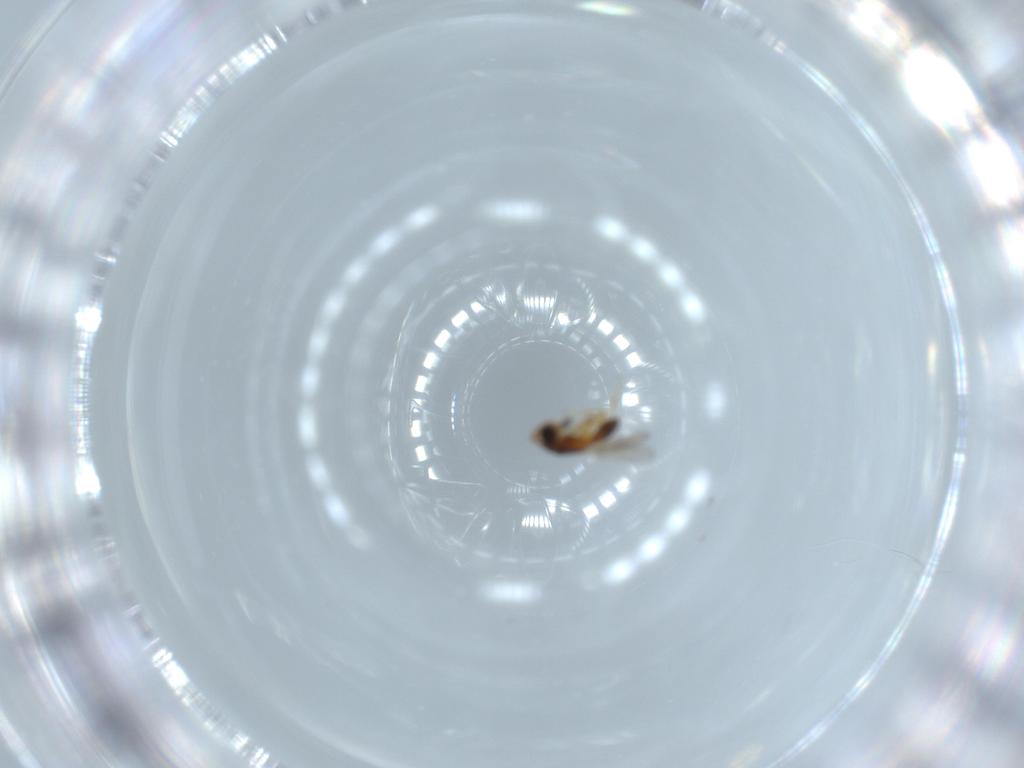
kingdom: Animalia
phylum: Arthropoda
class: Insecta
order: Hymenoptera
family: Diapriidae
